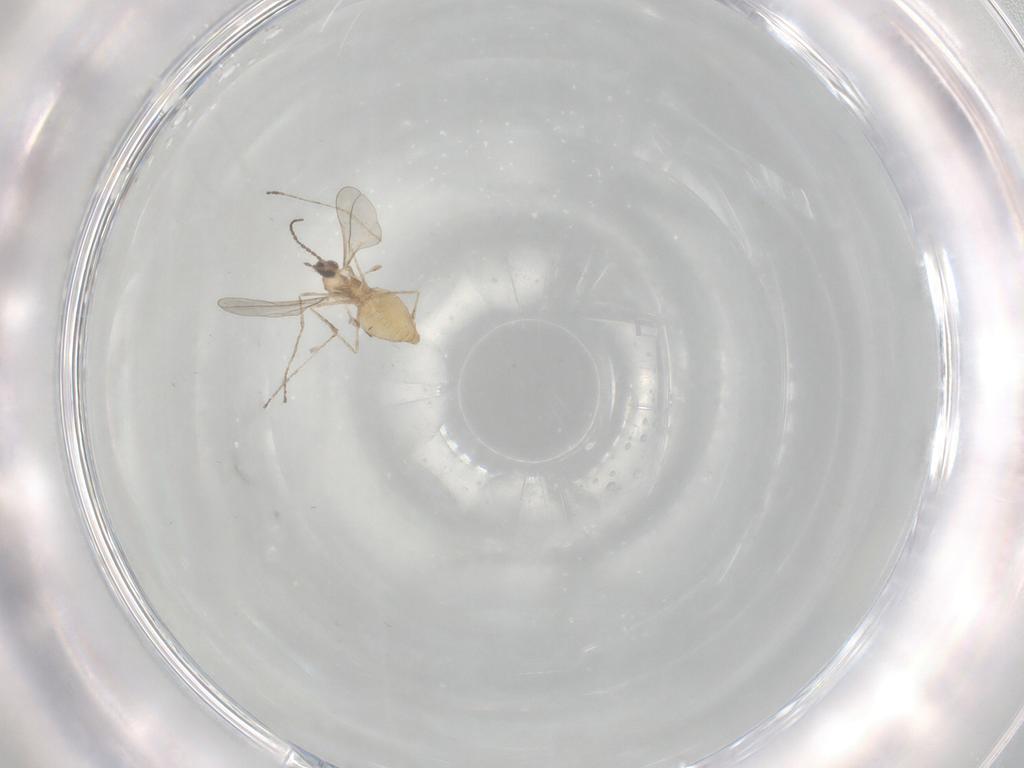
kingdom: Animalia
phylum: Arthropoda
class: Insecta
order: Diptera
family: Cecidomyiidae
